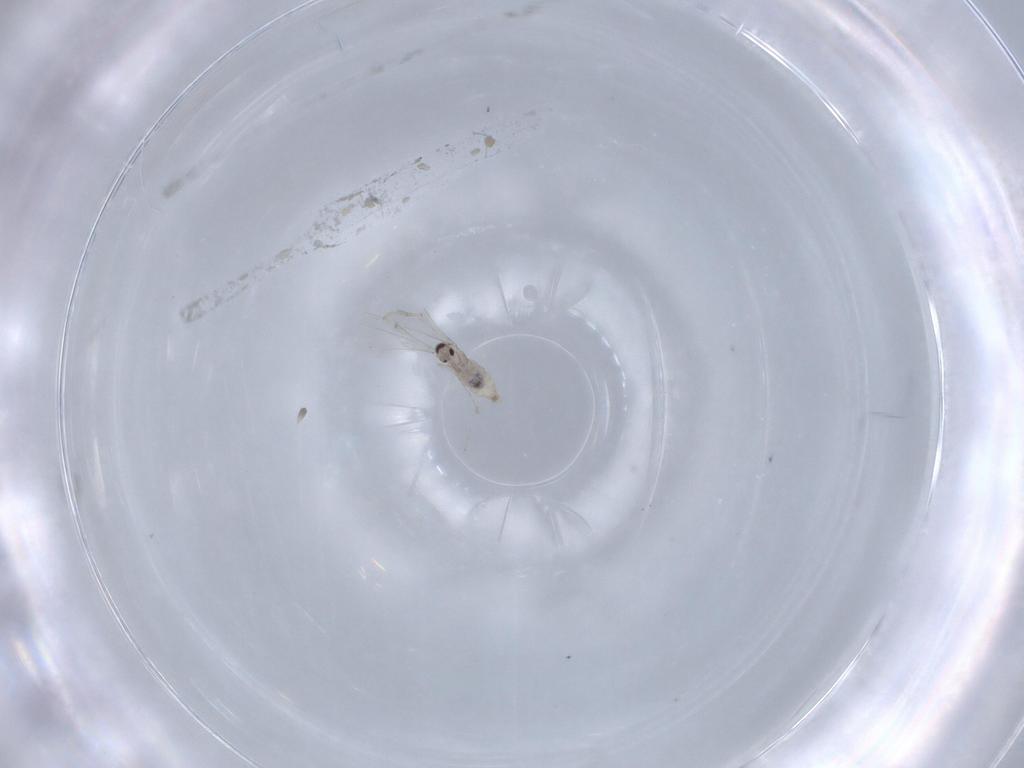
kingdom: Animalia
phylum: Arthropoda
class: Insecta
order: Diptera
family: Cecidomyiidae
